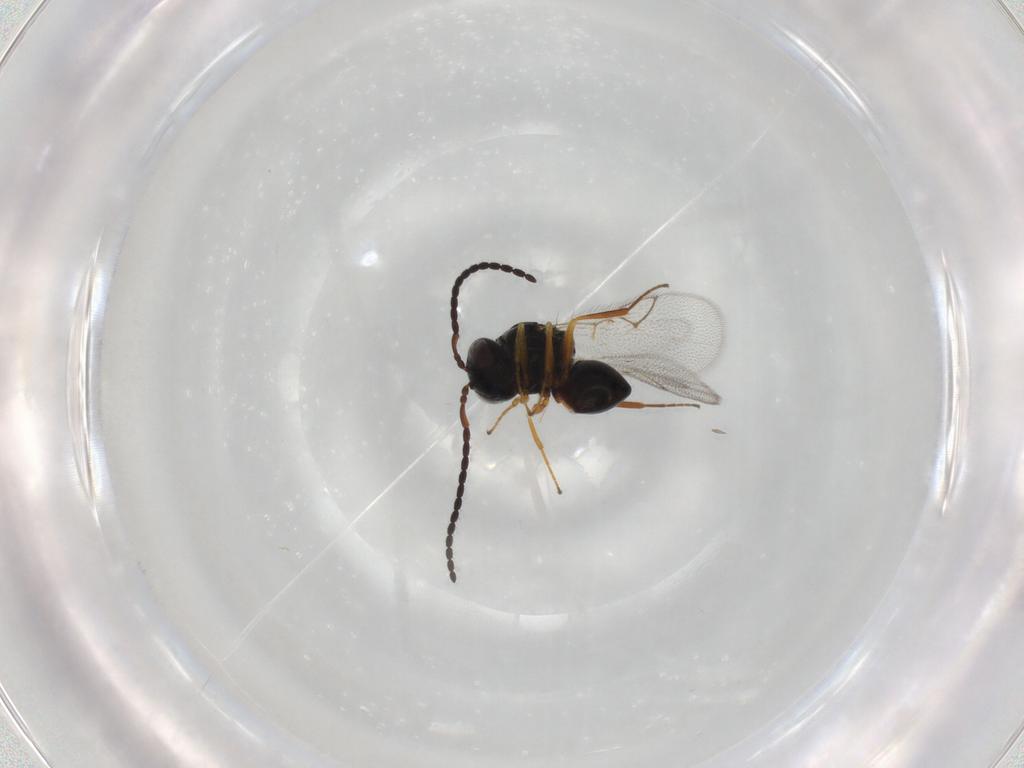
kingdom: Animalia
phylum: Arthropoda
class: Insecta
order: Hymenoptera
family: Figitidae
